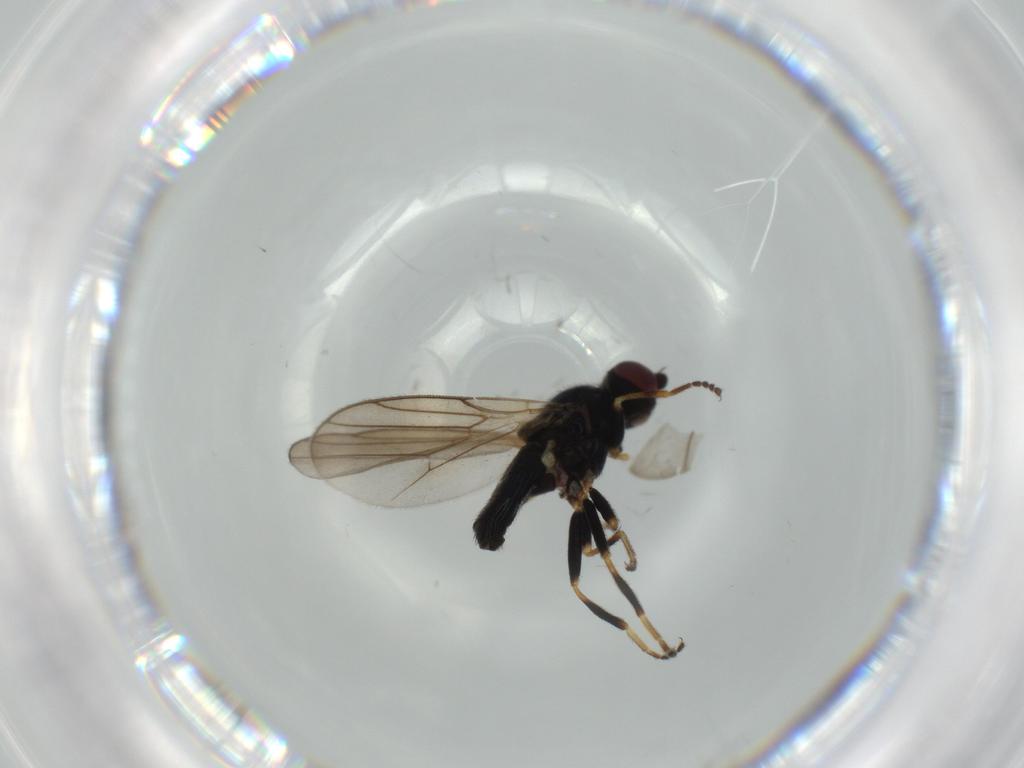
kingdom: Animalia
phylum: Arthropoda
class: Insecta
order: Diptera
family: Chloropidae
